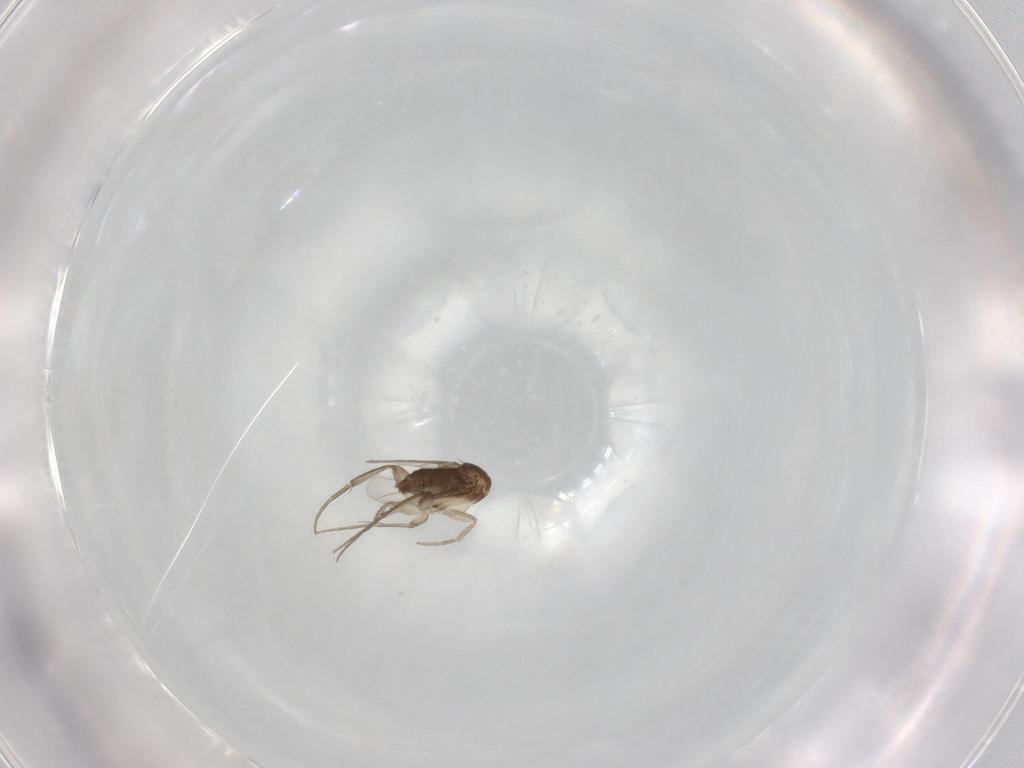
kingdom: Animalia
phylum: Arthropoda
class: Insecta
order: Diptera
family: Phoridae
